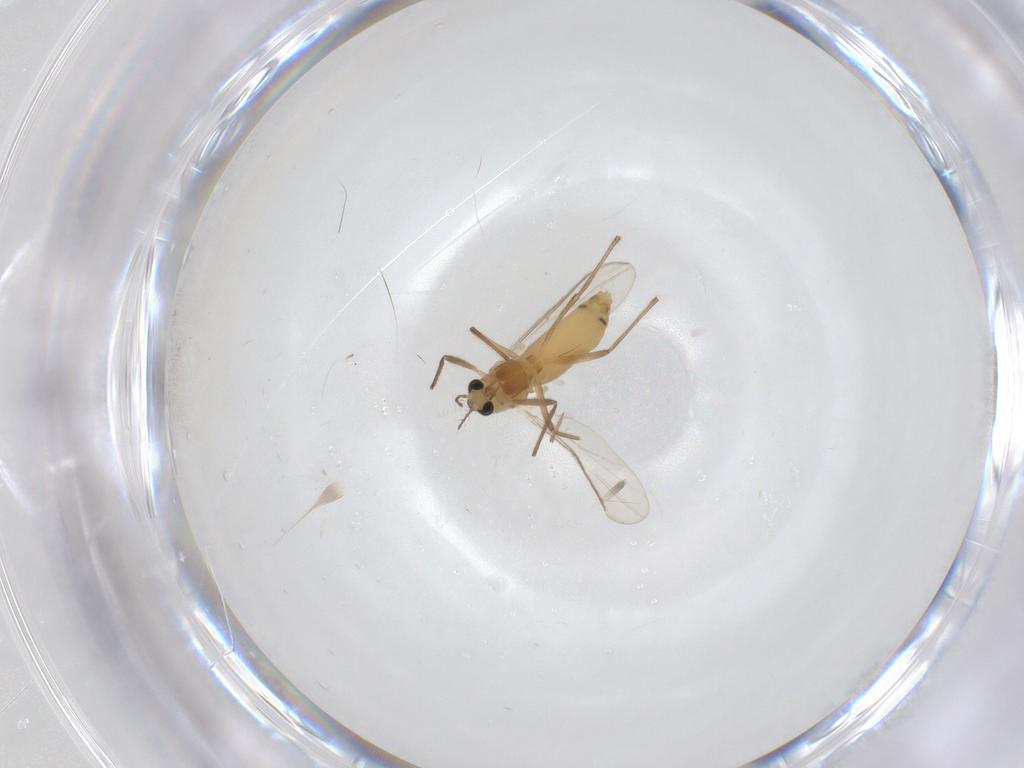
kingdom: Animalia
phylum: Arthropoda
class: Insecta
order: Diptera
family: Chironomidae
